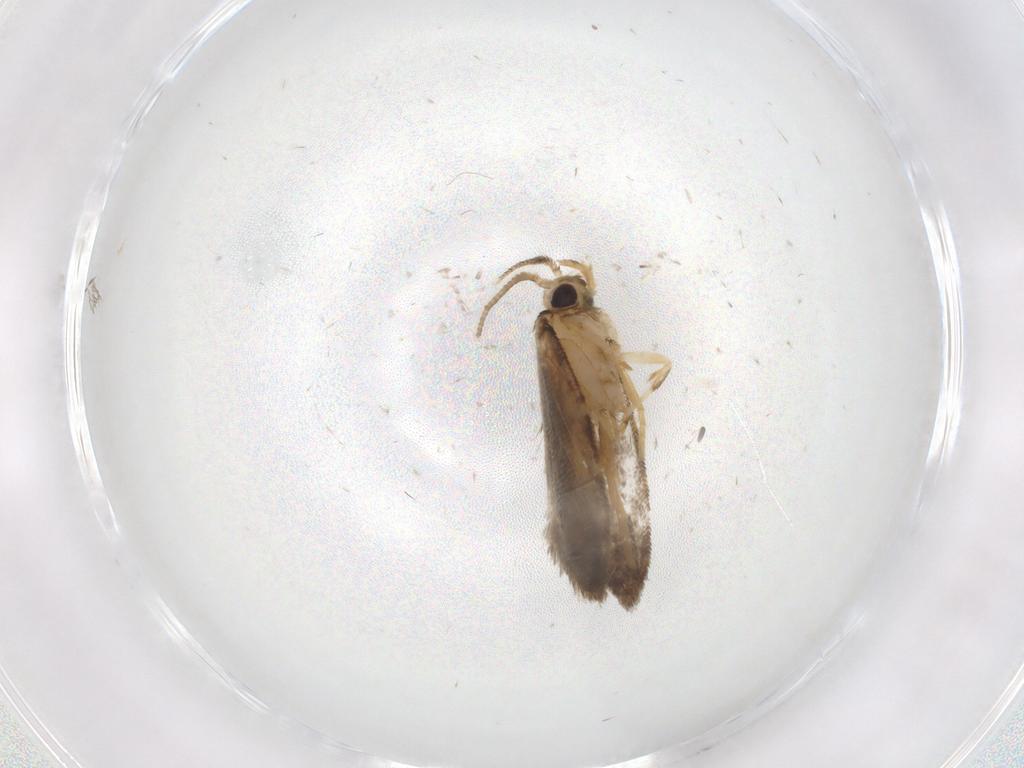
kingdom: Animalia
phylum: Arthropoda
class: Insecta
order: Lepidoptera
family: Psychidae
